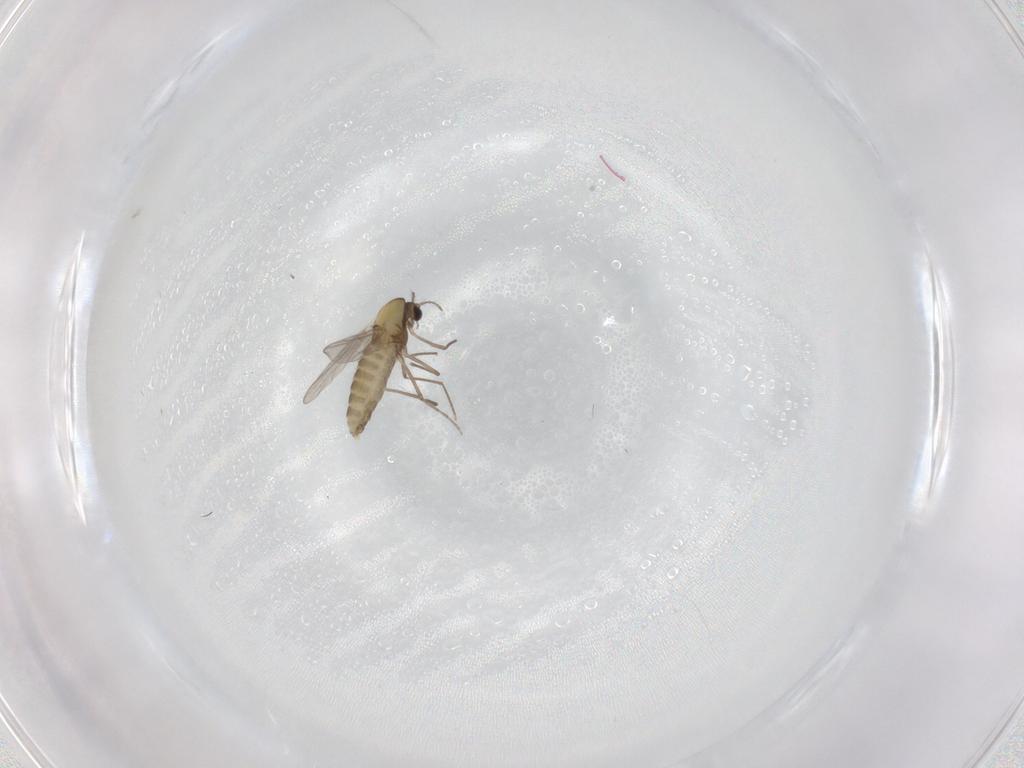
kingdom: Animalia
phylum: Arthropoda
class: Insecta
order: Diptera
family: Chironomidae
